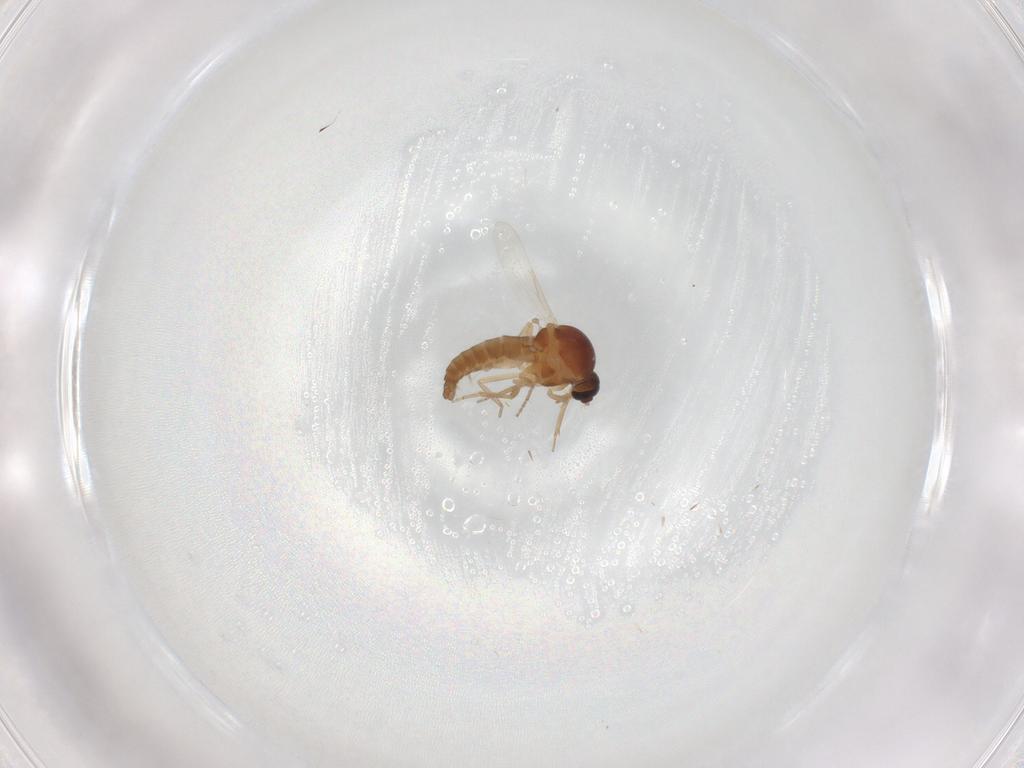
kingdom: Animalia
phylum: Arthropoda
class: Insecta
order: Diptera
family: Ceratopogonidae
